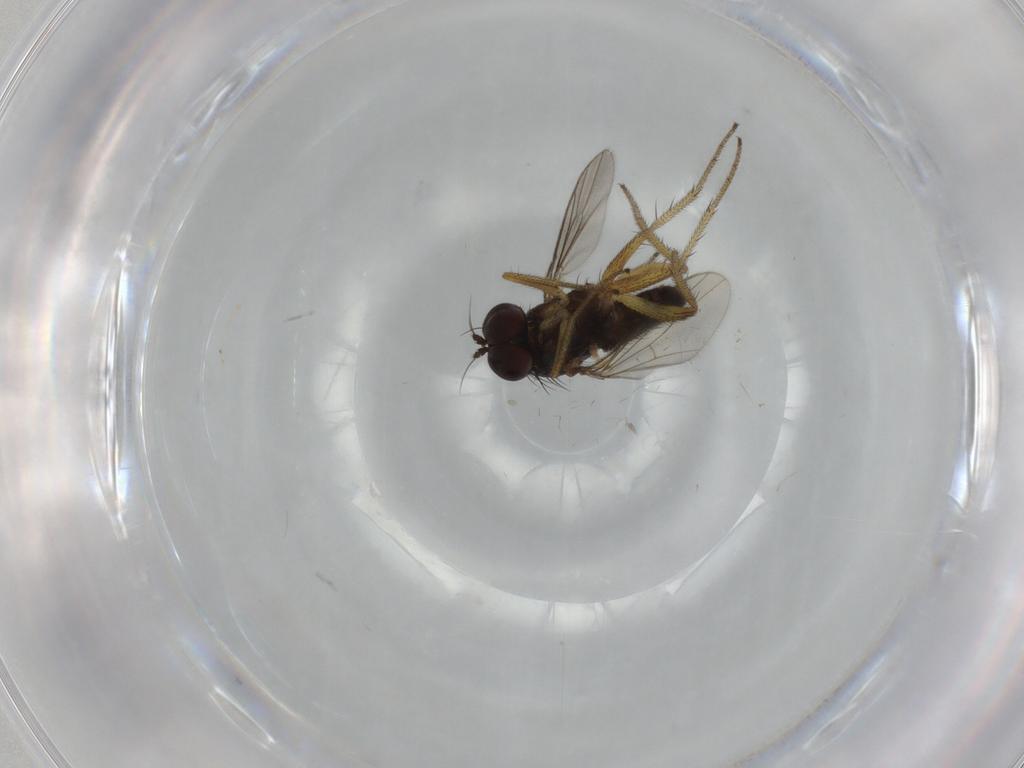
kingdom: Animalia
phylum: Arthropoda
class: Insecta
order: Diptera
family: Dolichopodidae
